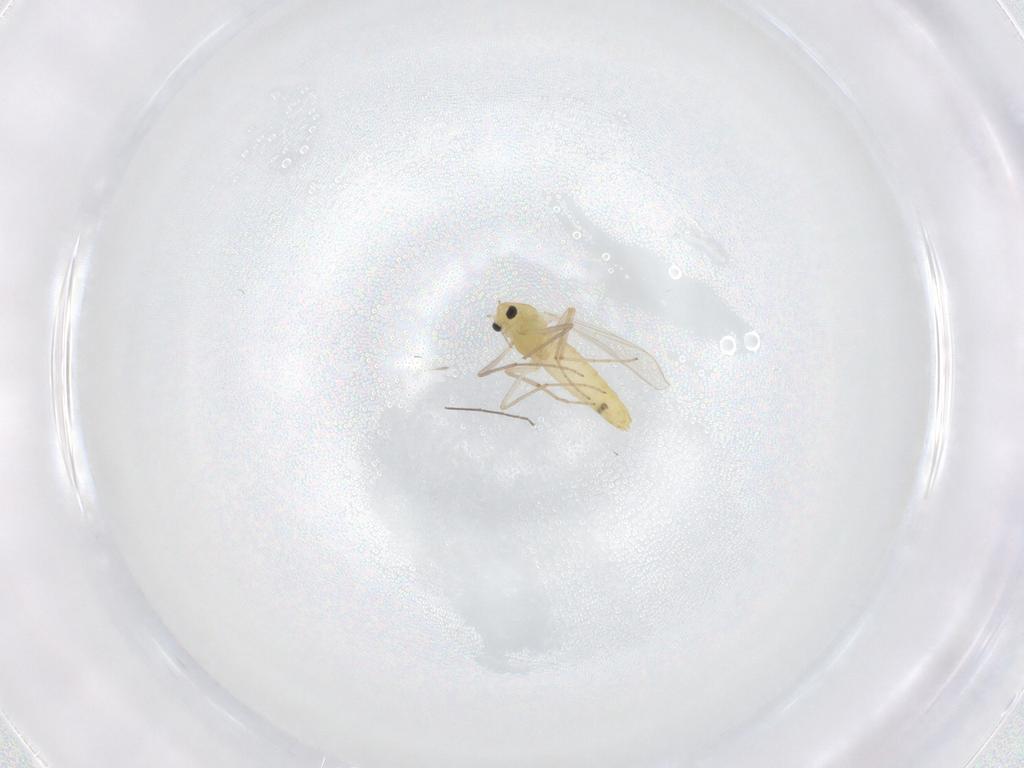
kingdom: Animalia
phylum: Arthropoda
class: Insecta
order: Diptera
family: Chironomidae
